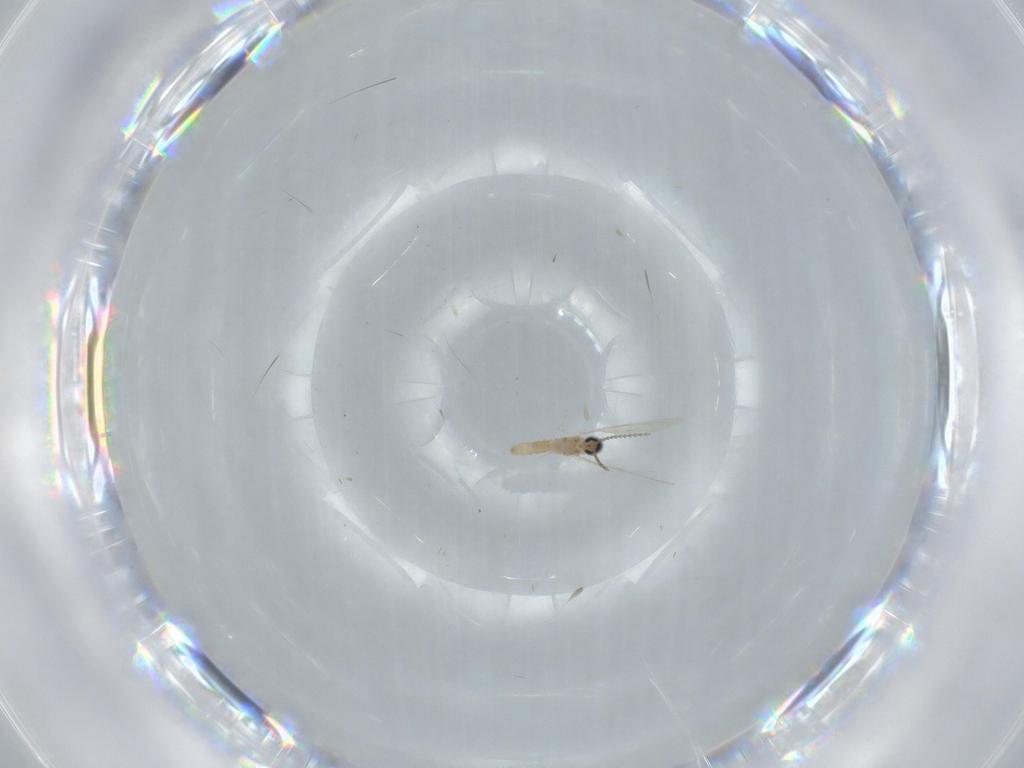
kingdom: Animalia
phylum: Arthropoda
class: Insecta
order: Diptera
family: Cecidomyiidae
